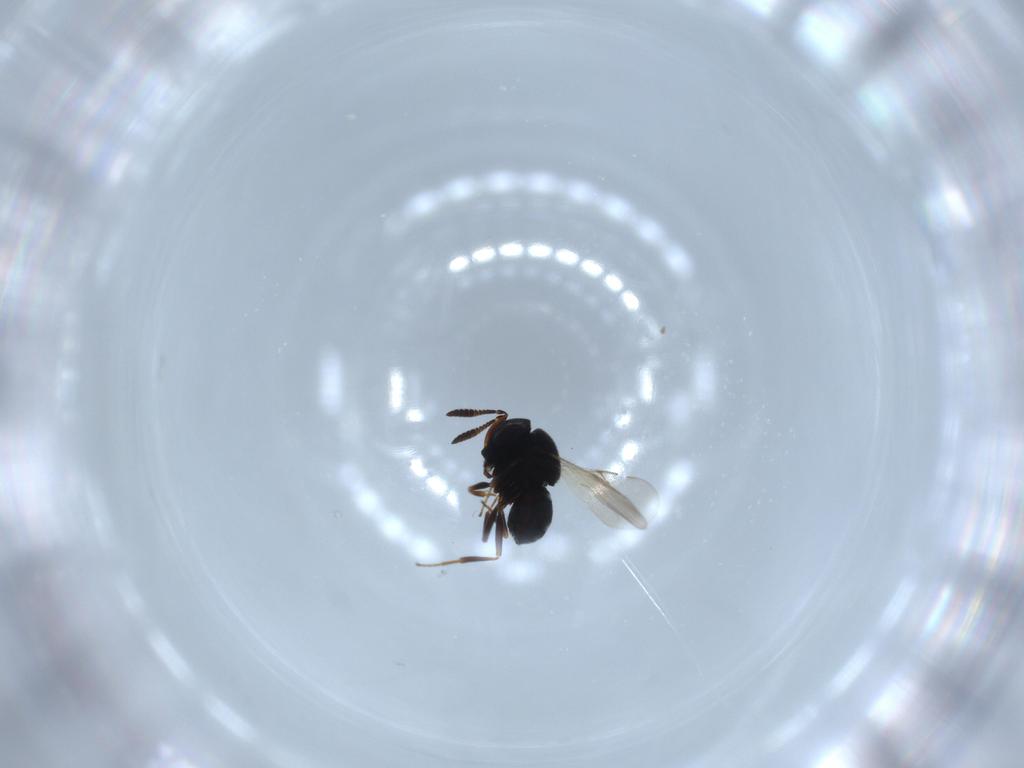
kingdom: Animalia
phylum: Arthropoda
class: Insecta
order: Hymenoptera
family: Scelionidae
